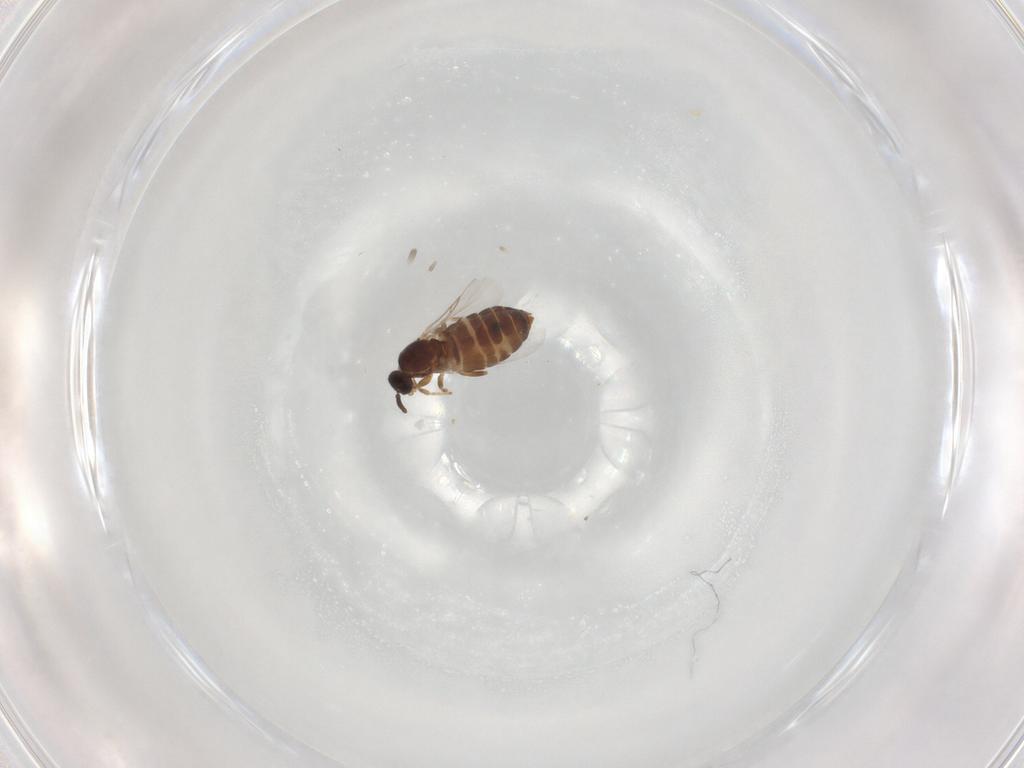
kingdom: Animalia
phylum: Arthropoda
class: Insecta
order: Diptera
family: Scatopsidae
